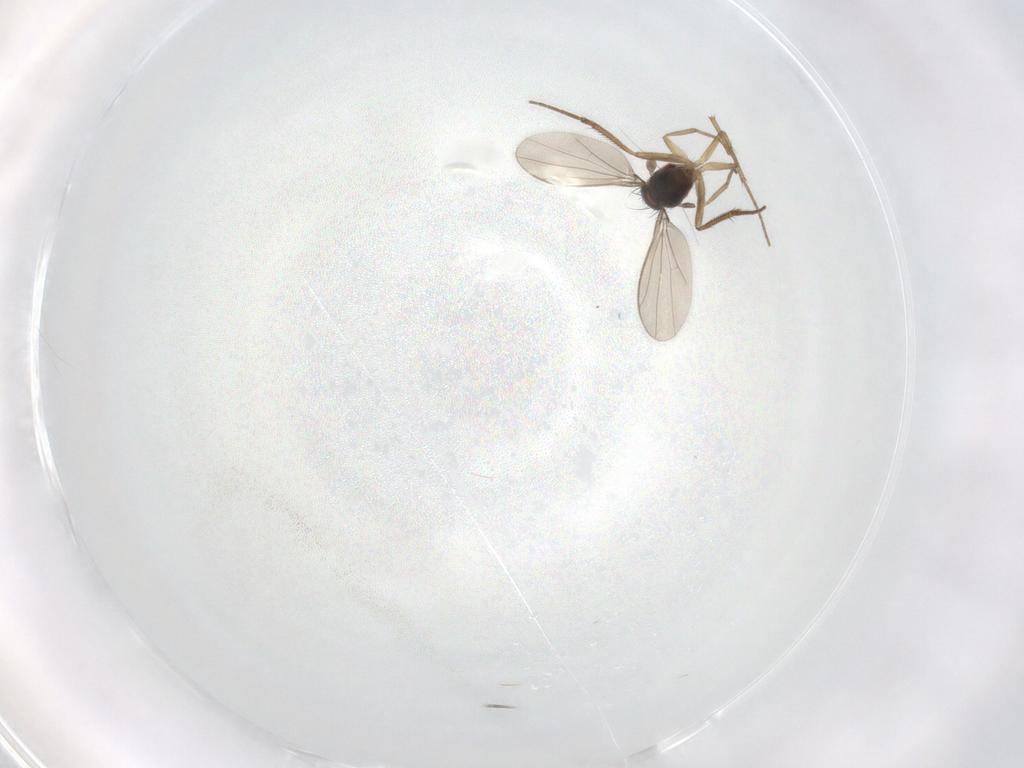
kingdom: Animalia
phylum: Arthropoda
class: Insecta
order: Diptera
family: Dolichopodidae
